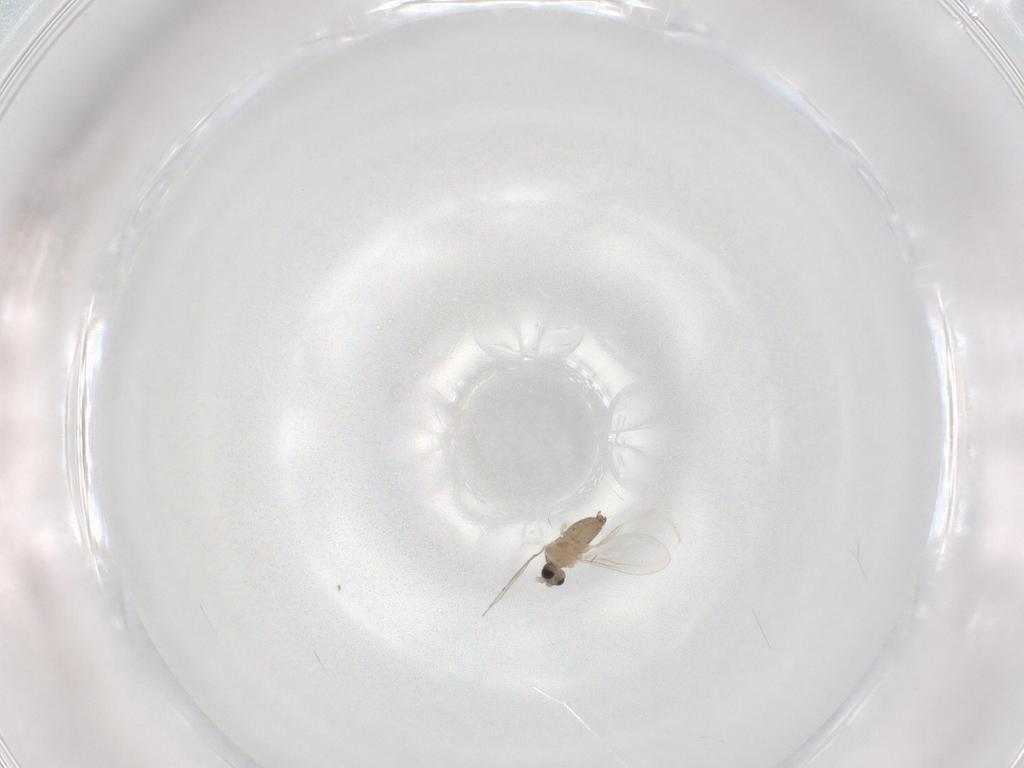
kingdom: Animalia
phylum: Arthropoda
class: Insecta
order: Diptera
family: Cecidomyiidae
